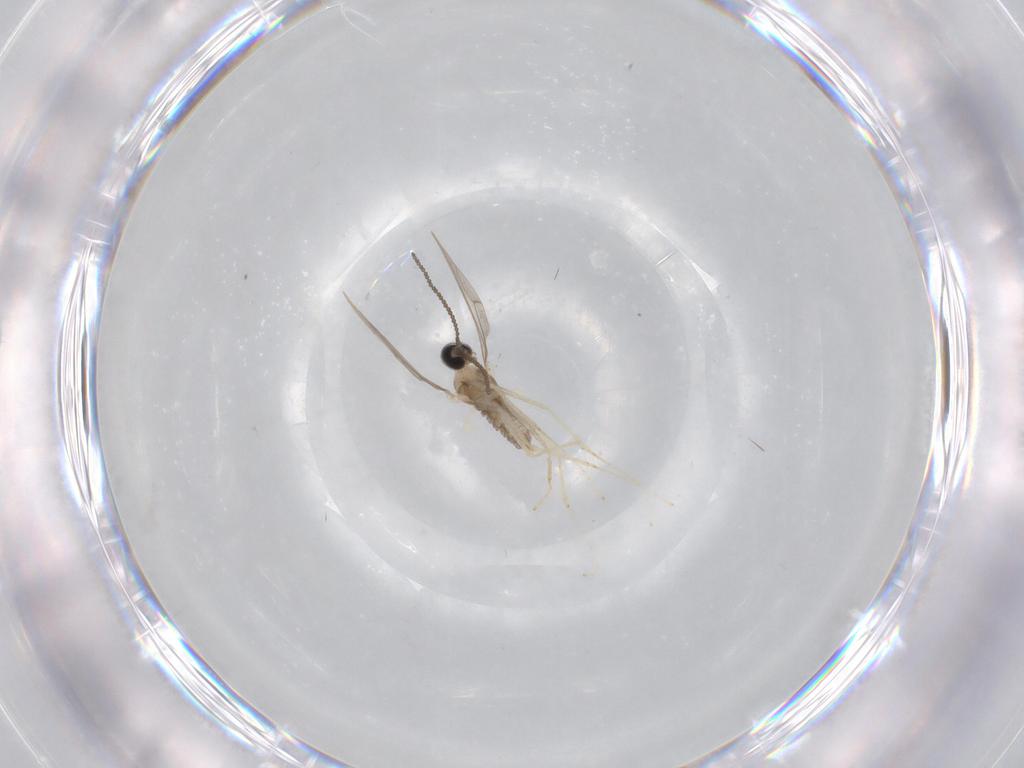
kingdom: Animalia
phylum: Arthropoda
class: Insecta
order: Diptera
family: Cecidomyiidae
